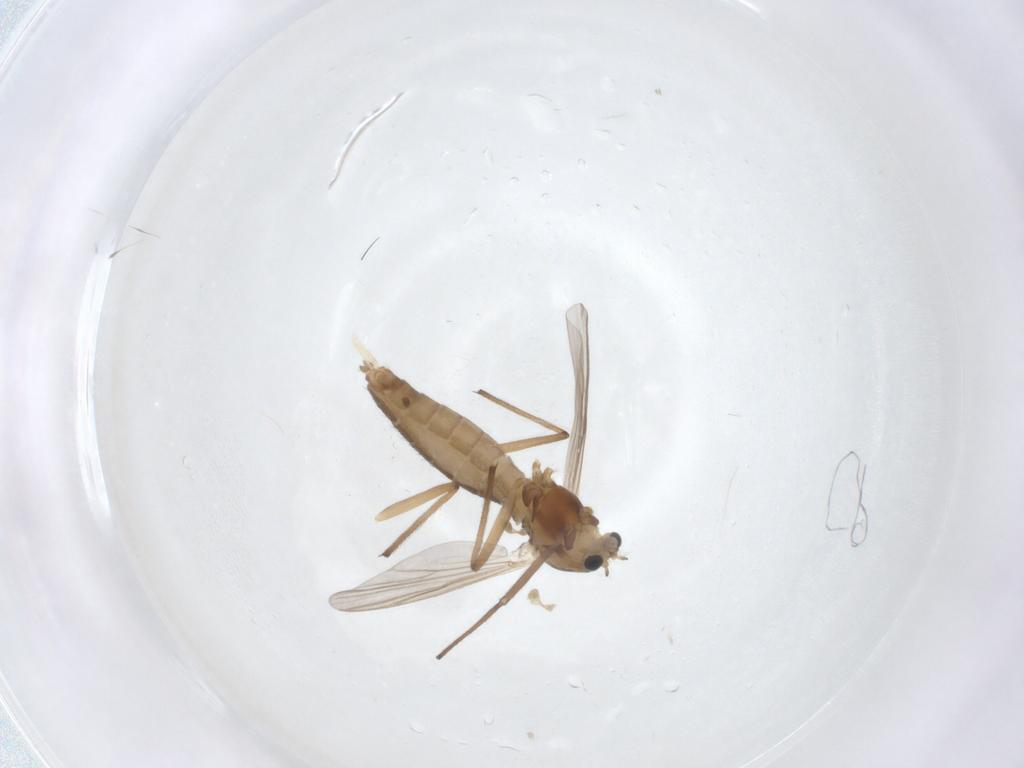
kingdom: Animalia
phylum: Arthropoda
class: Insecta
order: Diptera
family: Chironomidae
